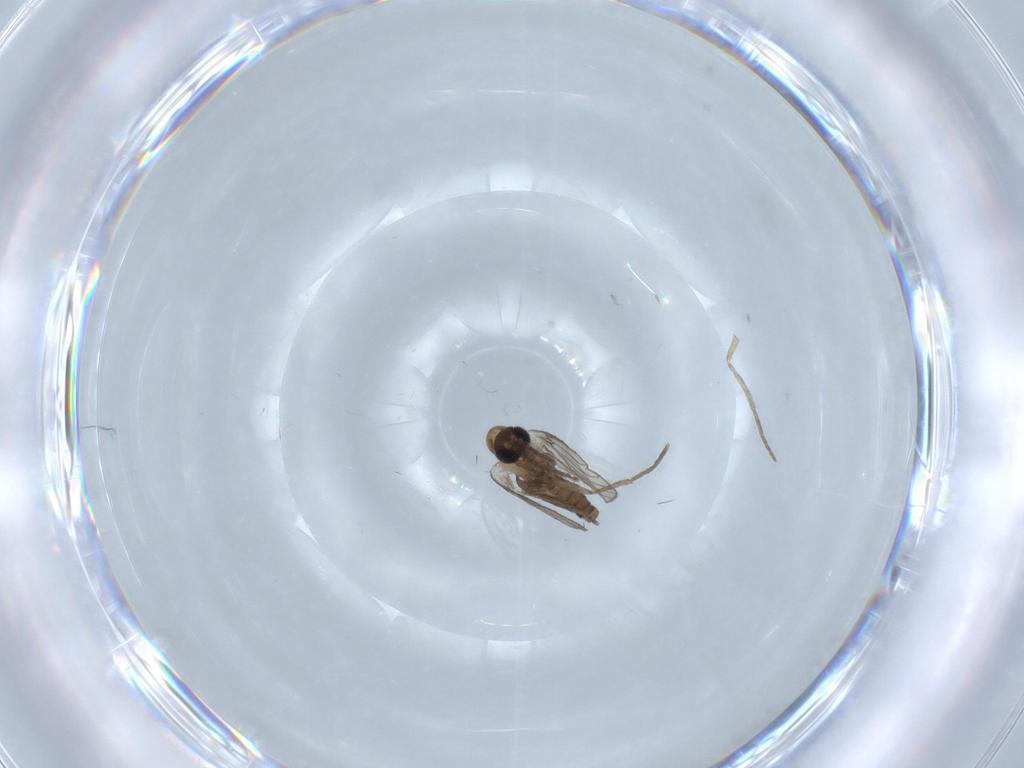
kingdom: Animalia
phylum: Arthropoda
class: Insecta
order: Diptera
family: Psychodidae
